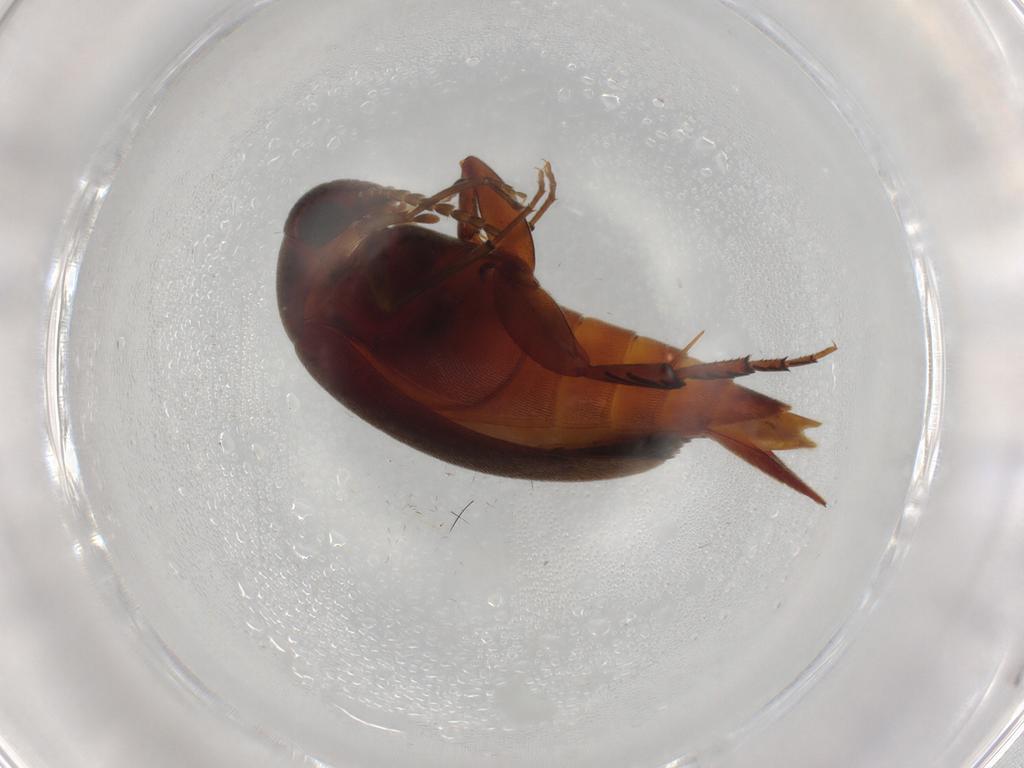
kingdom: Animalia
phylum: Arthropoda
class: Insecta
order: Coleoptera
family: Mordellidae
